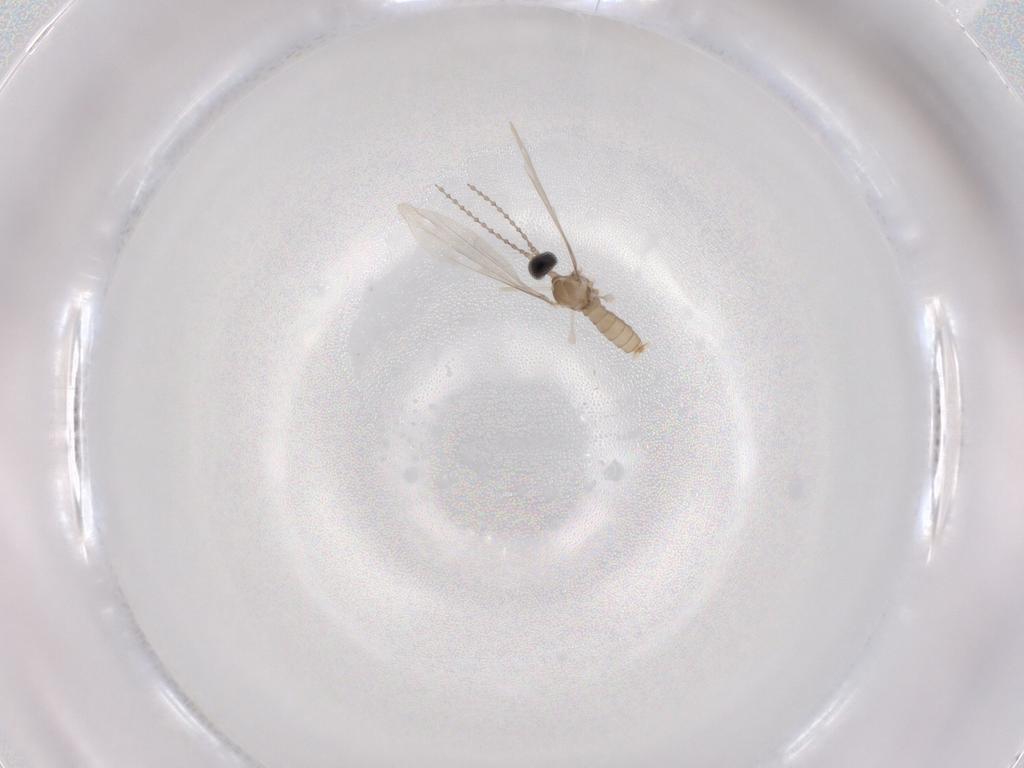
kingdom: Animalia
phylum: Arthropoda
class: Insecta
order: Diptera
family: Cecidomyiidae
